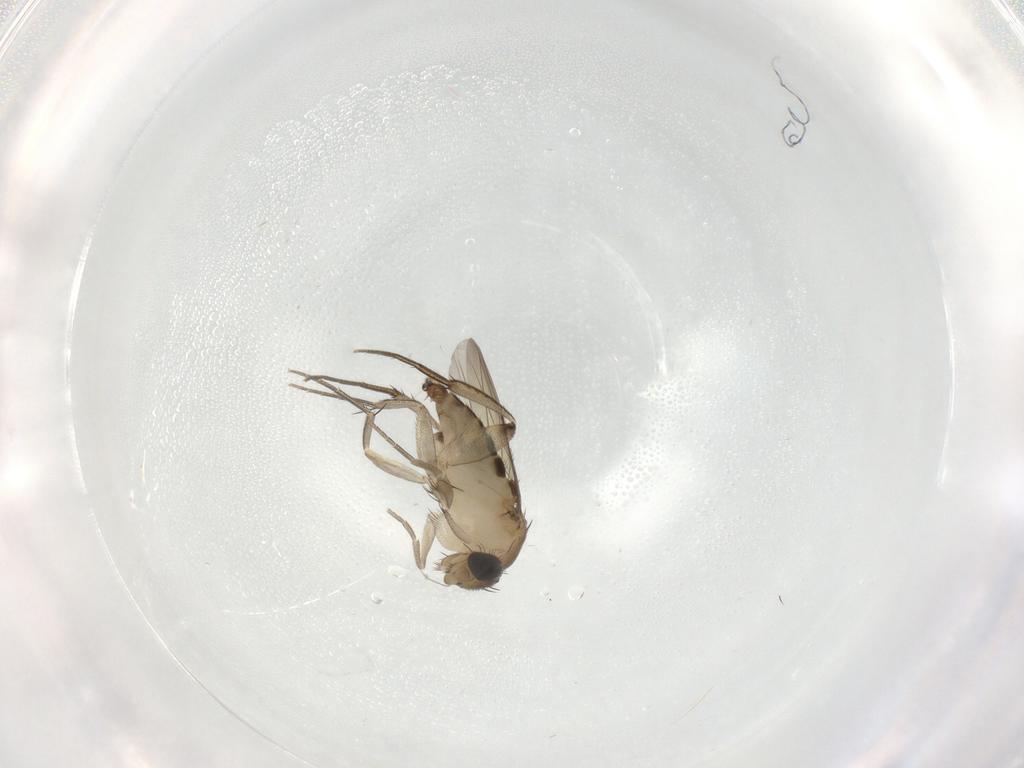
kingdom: Animalia
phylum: Arthropoda
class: Insecta
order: Diptera
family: Phoridae
